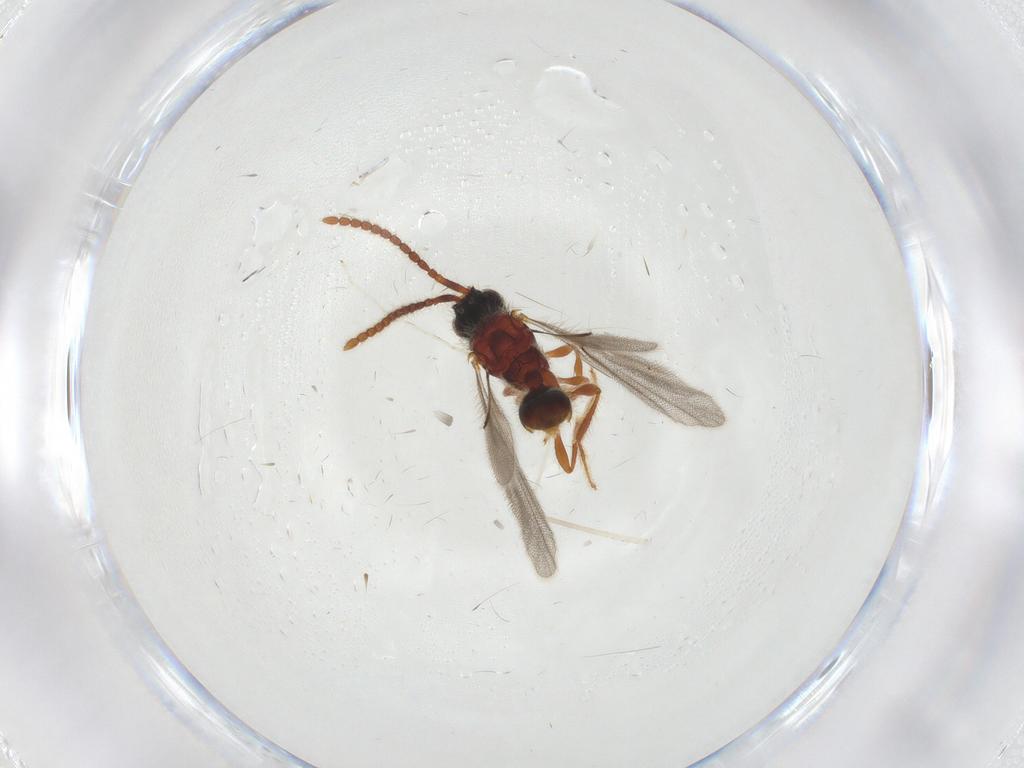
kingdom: Animalia
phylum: Arthropoda
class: Insecta
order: Hymenoptera
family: Diapriidae
